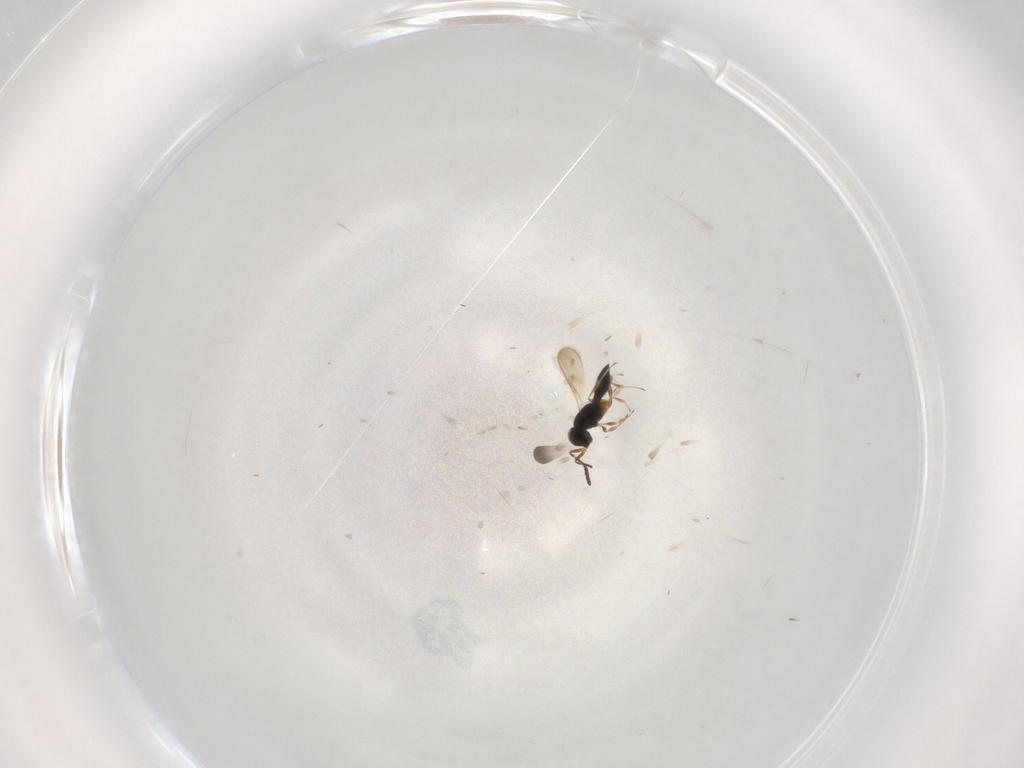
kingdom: Animalia
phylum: Arthropoda
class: Insecta
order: Hymenoptera
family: Scelionidae
